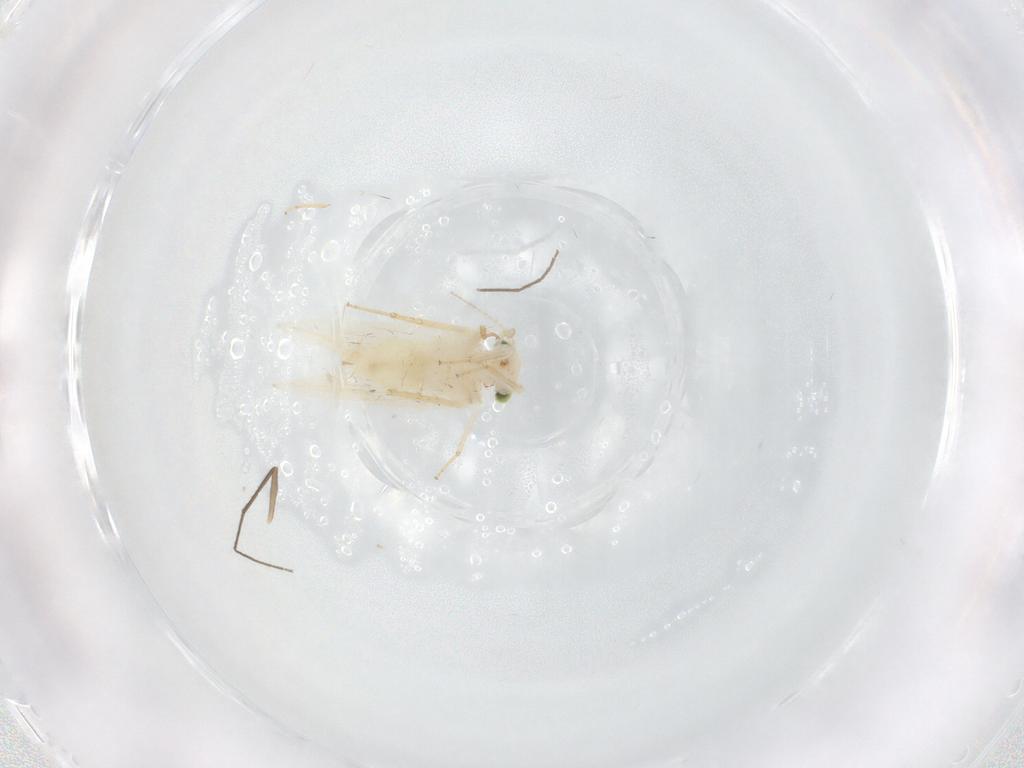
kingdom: Animalia
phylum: Arthropoda
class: Insecta
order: Psocodea
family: Lepidopsocidae
